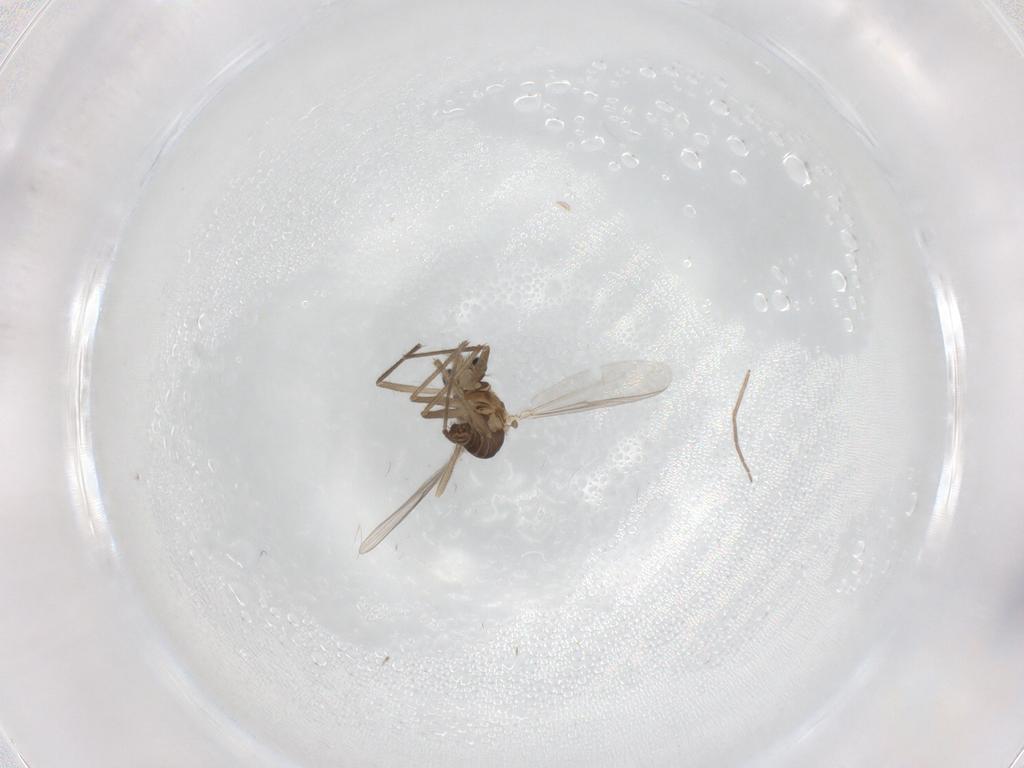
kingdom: Animalia
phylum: Arthropoda
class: Insecta
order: Diptera
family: Chironomidae
